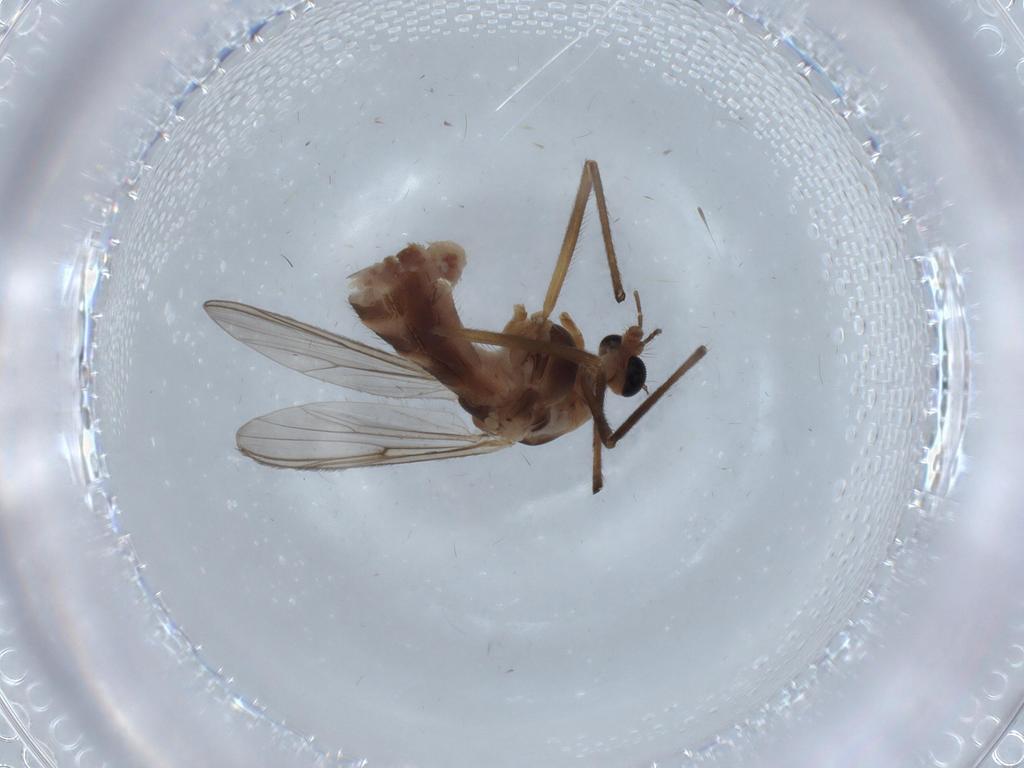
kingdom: Animalia
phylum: Arthropoda
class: Insecta
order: Diptera
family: Chironomidae
